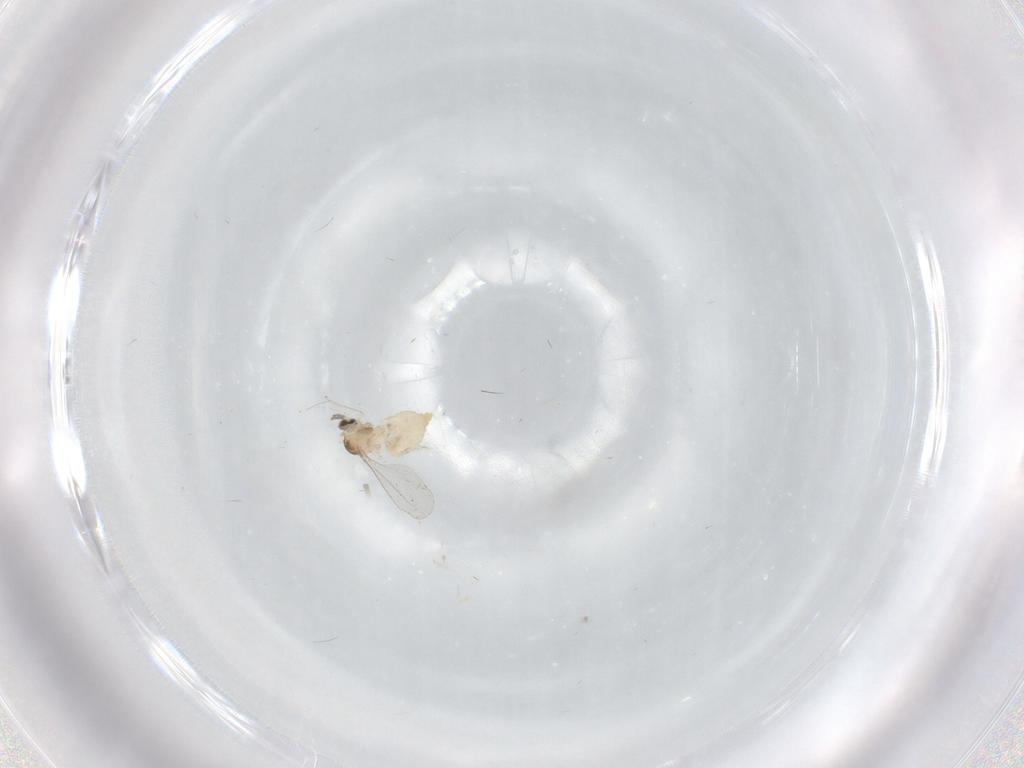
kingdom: Animalia
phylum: Arthropoda
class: Insecta
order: Diptera
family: Cecidomyiidae
